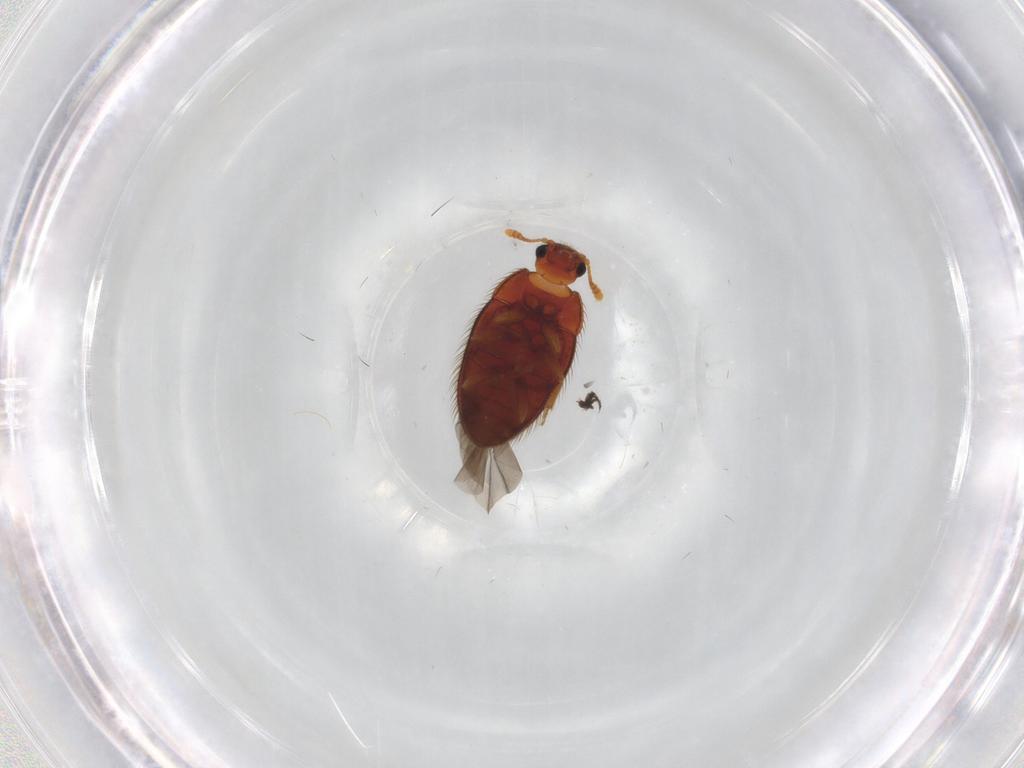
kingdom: Animalia
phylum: Arthropoda
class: Insecta
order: Coleoptera
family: Biphyllidae
